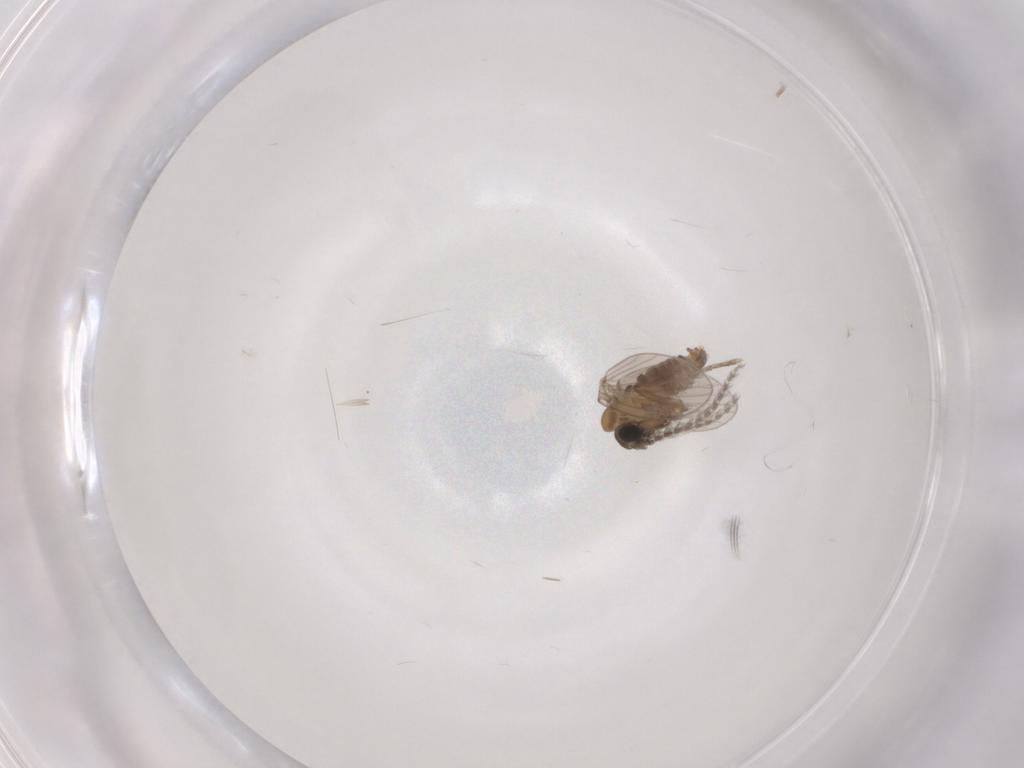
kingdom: Animalia
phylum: Arthropoda
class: Insecta
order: Diptera
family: Psychodidae
